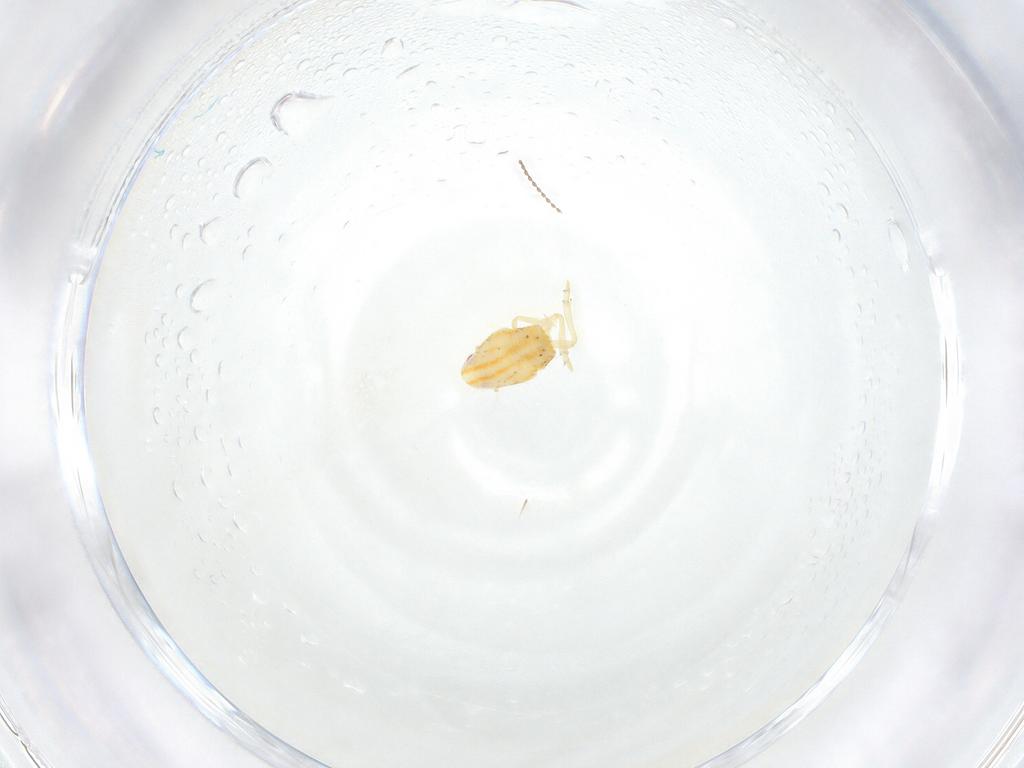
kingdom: Animalia
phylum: Arthropoda
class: Insecta
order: Hemiptera
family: Flatidae
